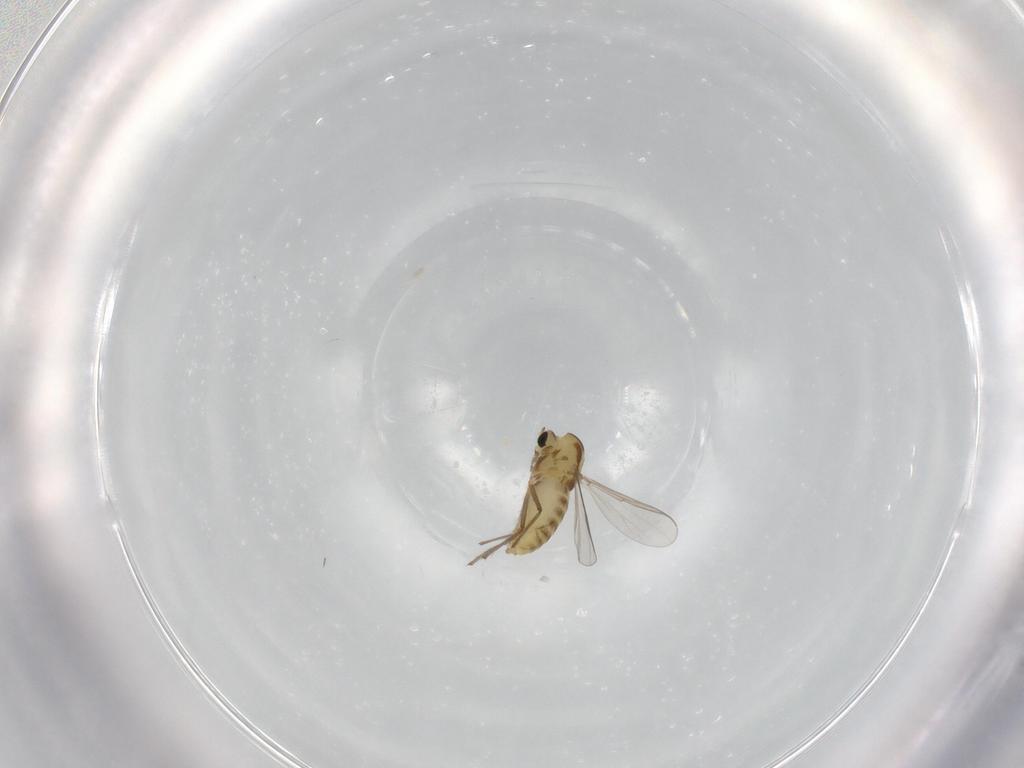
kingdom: Animalia
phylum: Arthropoda
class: Insecta
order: Diptera
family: Chironomidae
